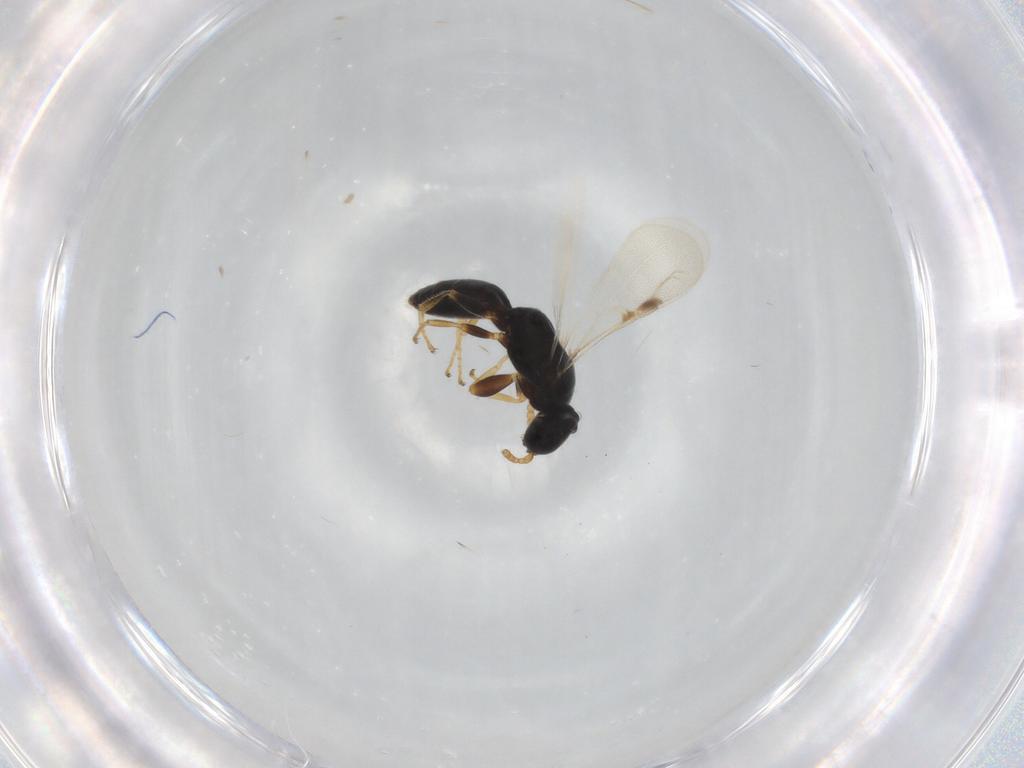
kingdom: Animalia
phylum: Arthropoda
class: Insecta
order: Hymenoptera
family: Bethylidae
